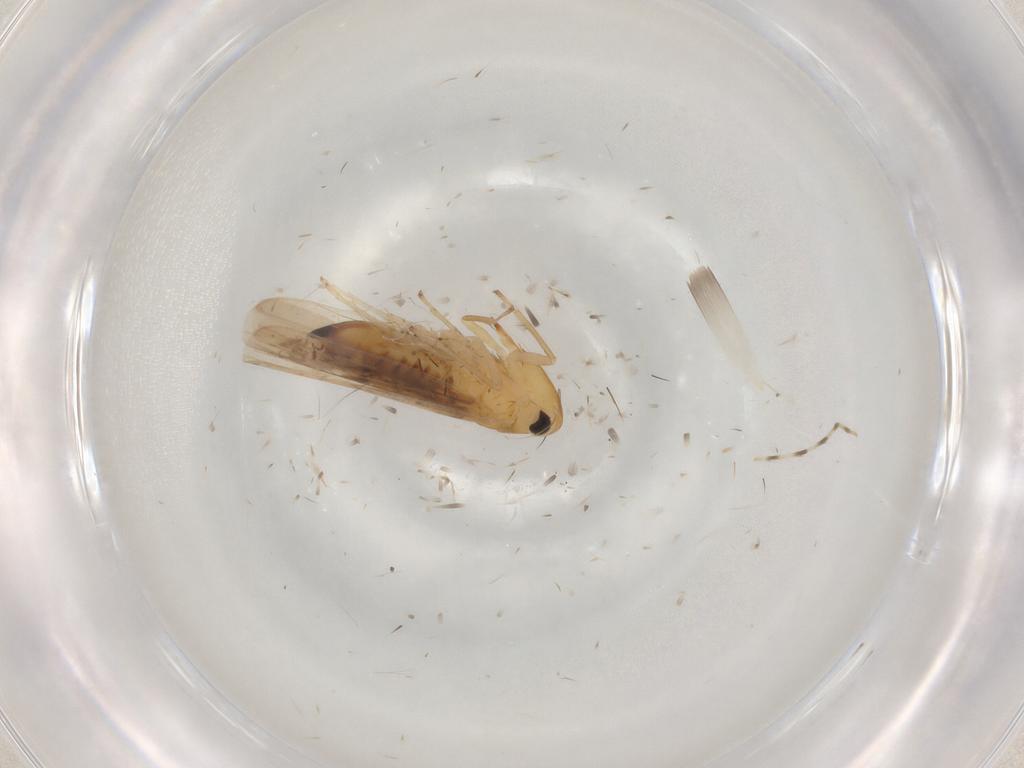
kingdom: Animalia
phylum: Arthropoda
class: Insecta
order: Hemiptera
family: Cicadellidae
